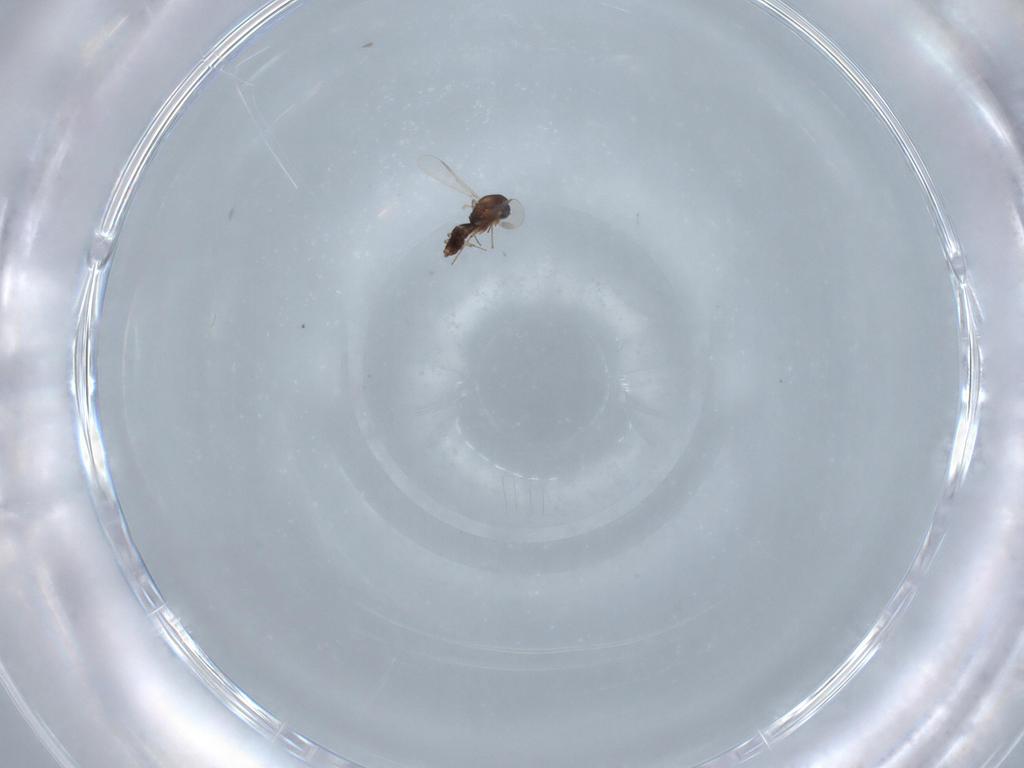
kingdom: Animalia
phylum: Arthropoda
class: Insecta
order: Diptera
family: Chironomidae
